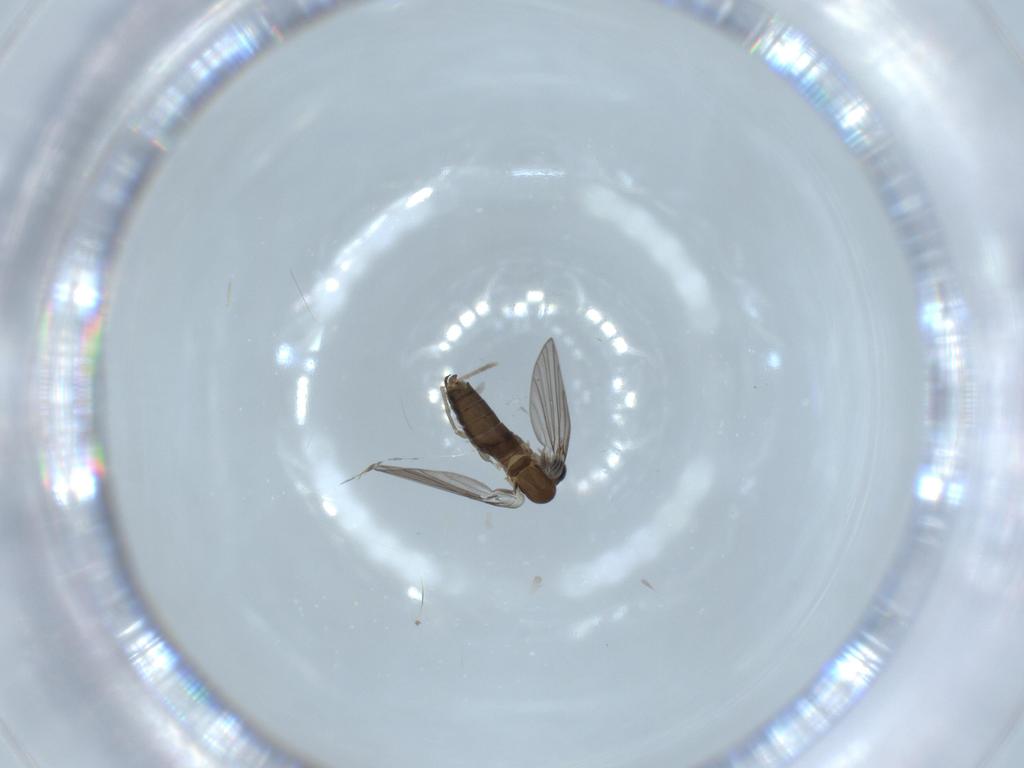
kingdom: Animalia
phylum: Arthropoda
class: Insecta
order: Diptera
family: Psychodidae
